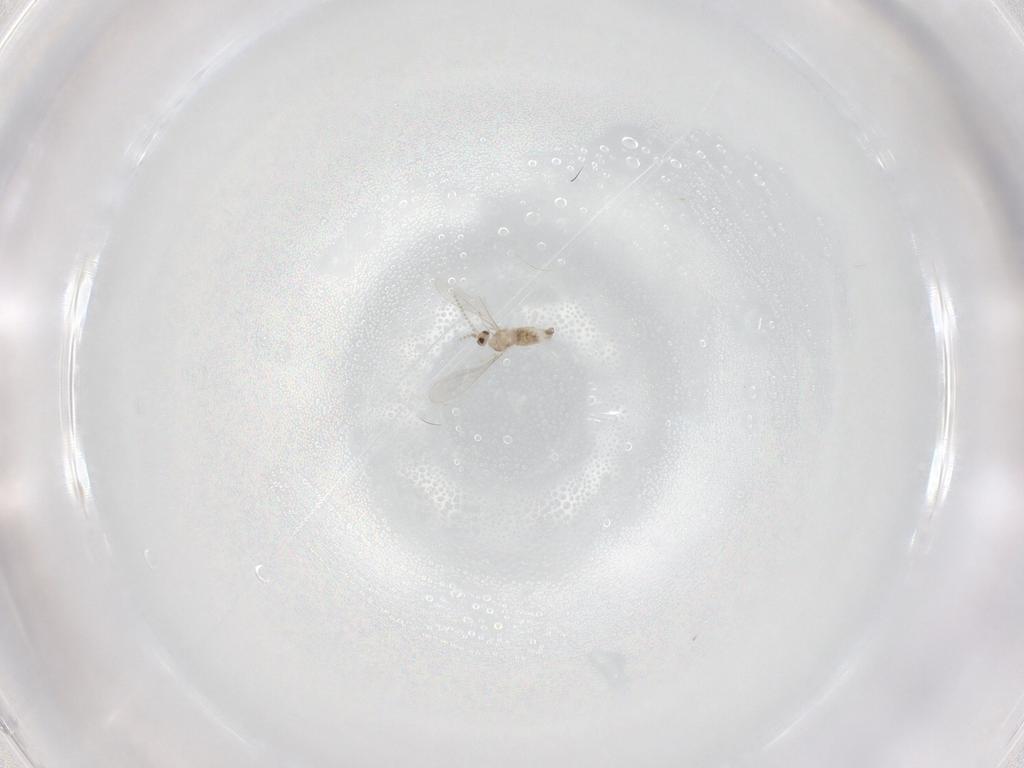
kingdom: Animalia
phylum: Arthropoda
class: Insecta
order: Diptera
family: Cecidomyiidae
